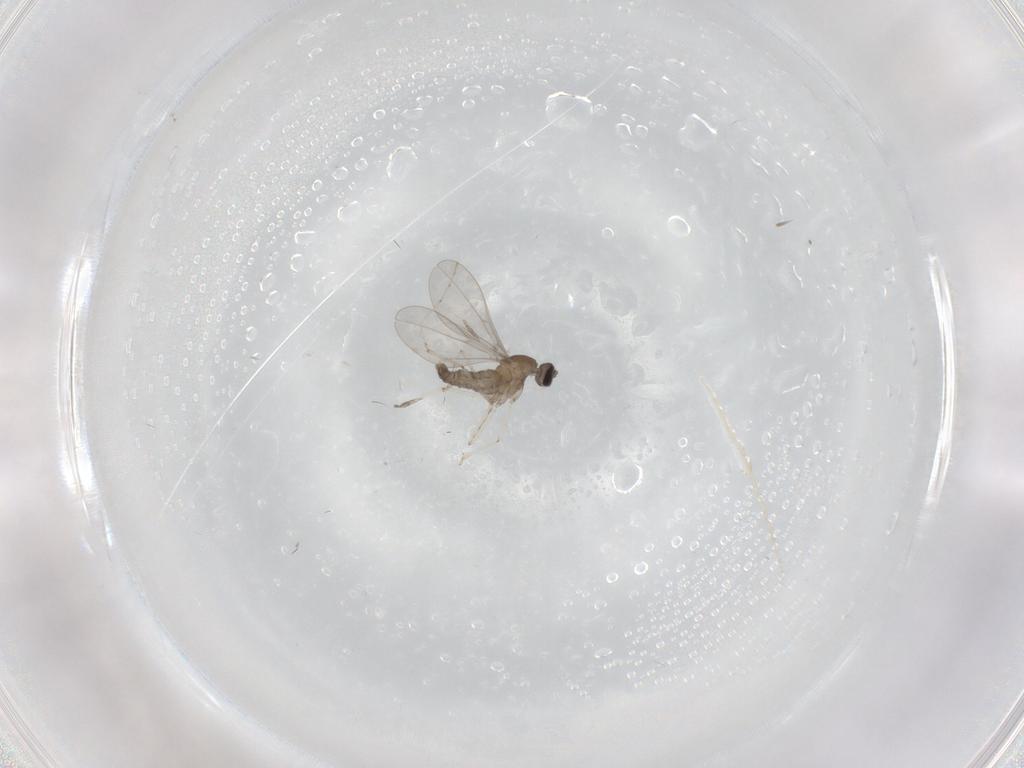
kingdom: Animalia
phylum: Arthropoda
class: Insecta
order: Diptera
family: Cecidomyiidae
